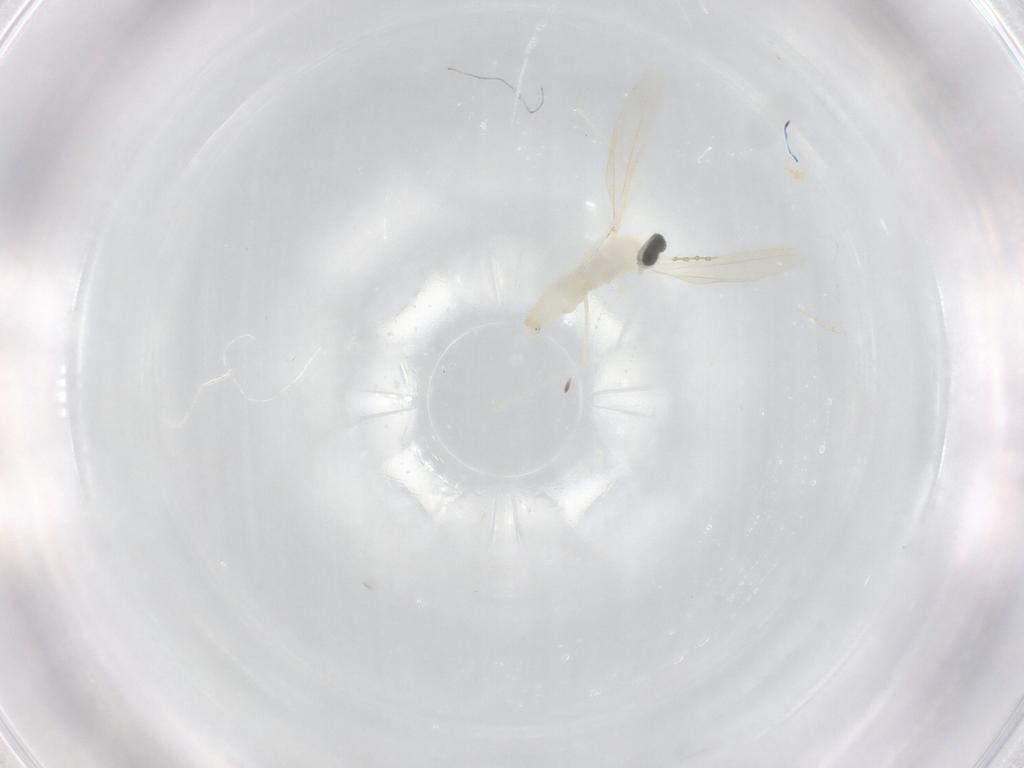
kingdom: Animalia
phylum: Arthropoda
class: Insecta
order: Diptera
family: Cecidomyiidae
